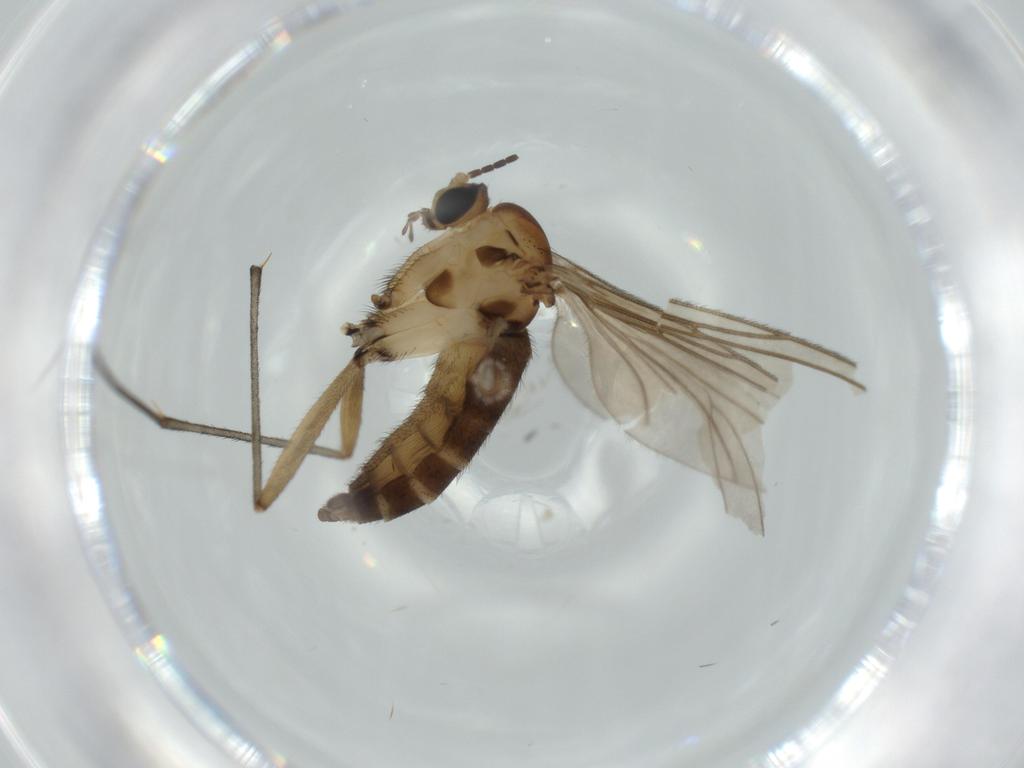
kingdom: Animalia
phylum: Arthropoda
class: Insecta
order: Diptera
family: Sciaridae
